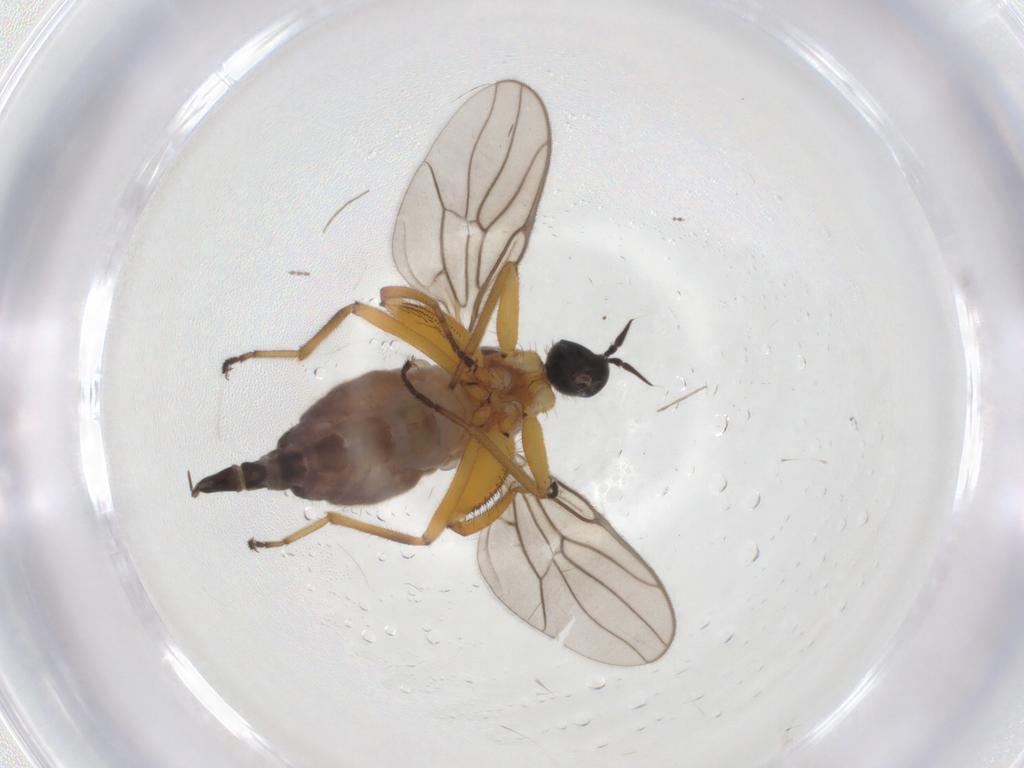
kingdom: Animalia
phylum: Arthropoda
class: Insecta
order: Diptera
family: Hybotidae
